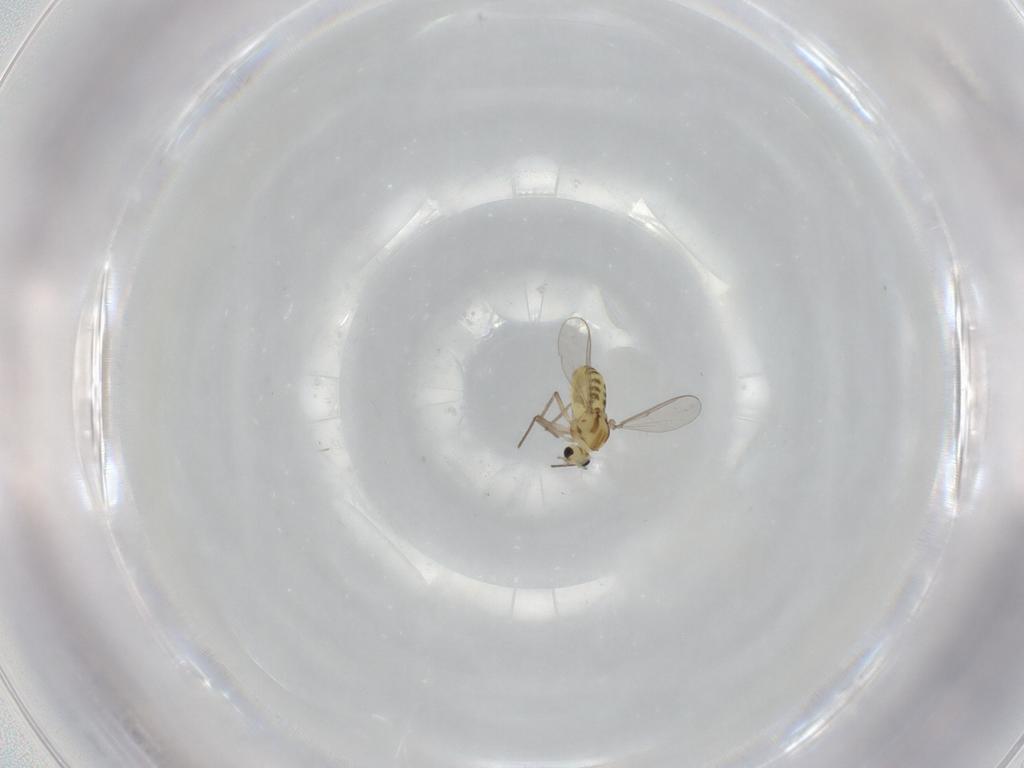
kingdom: Animalia
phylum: Arthropoda
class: Insecta
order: Diptera
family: Chironomidae
